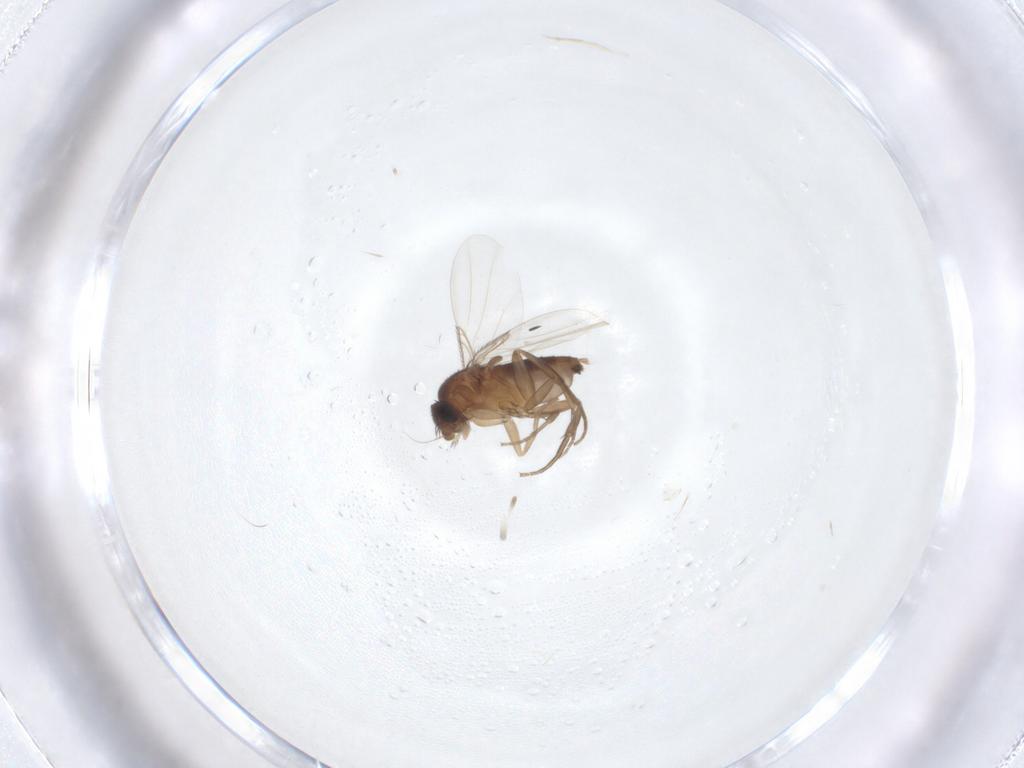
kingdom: Animalia
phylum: Arthropoda
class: Insecta
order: Diptera
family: Phoridae
